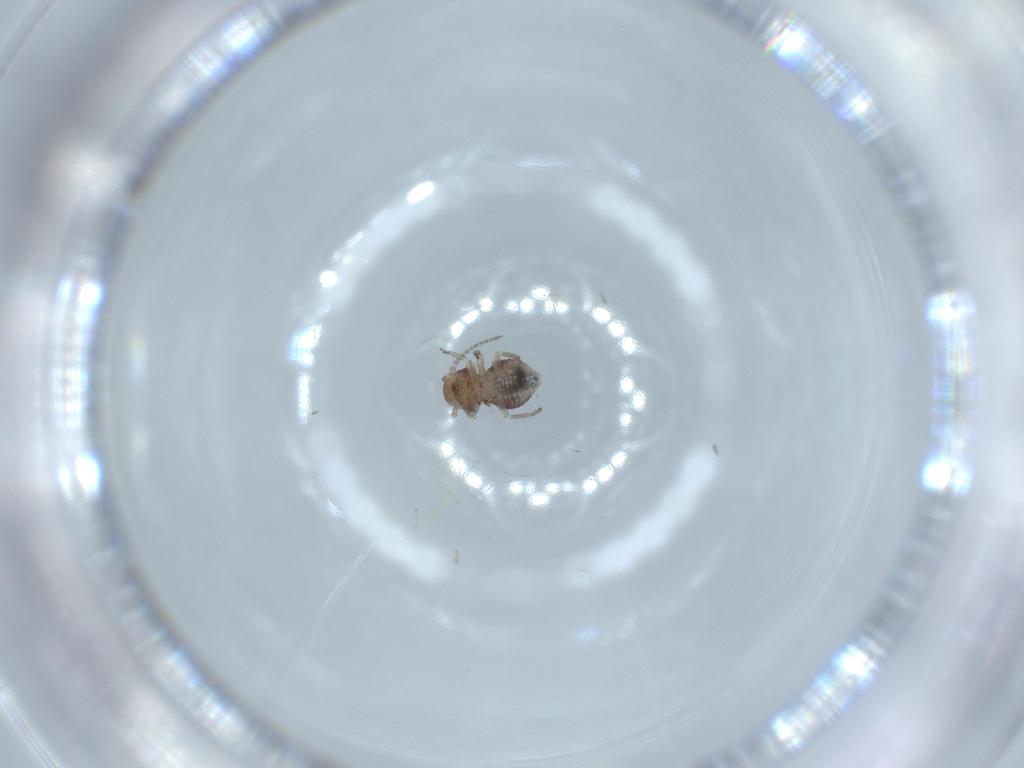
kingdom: Animalia
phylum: Arthropoda
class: Insecta
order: Psocodea
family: Myopsocidae
